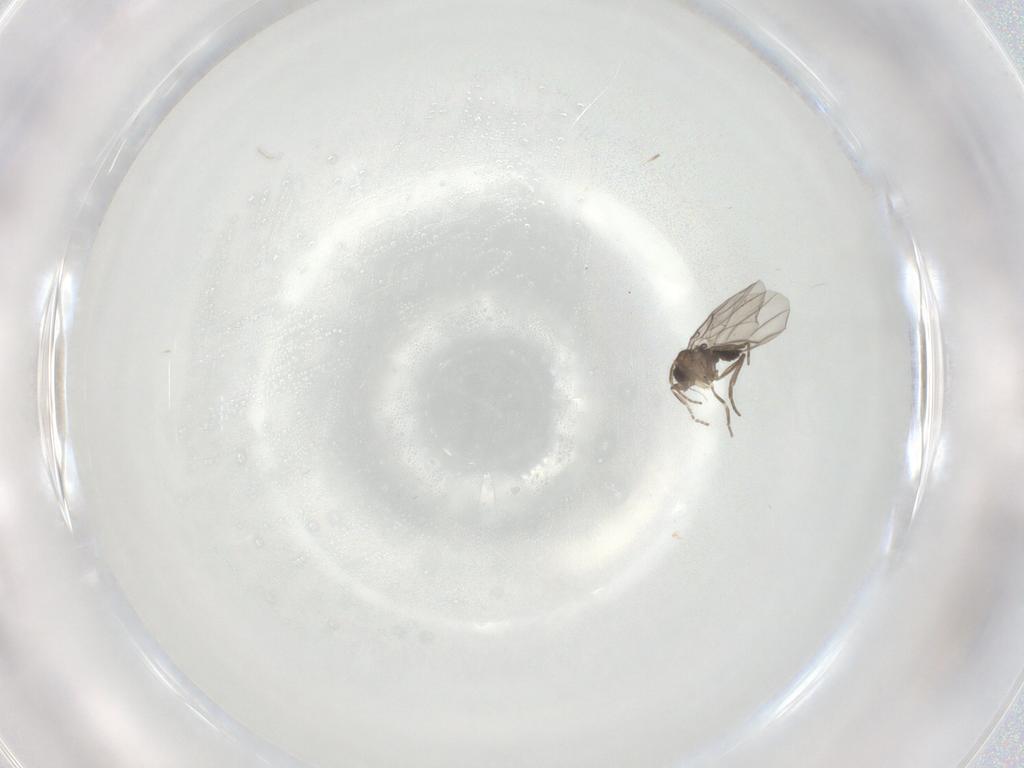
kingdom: Animalia
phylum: Arthropoda
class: Insecta
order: Diptera
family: Phoridae
